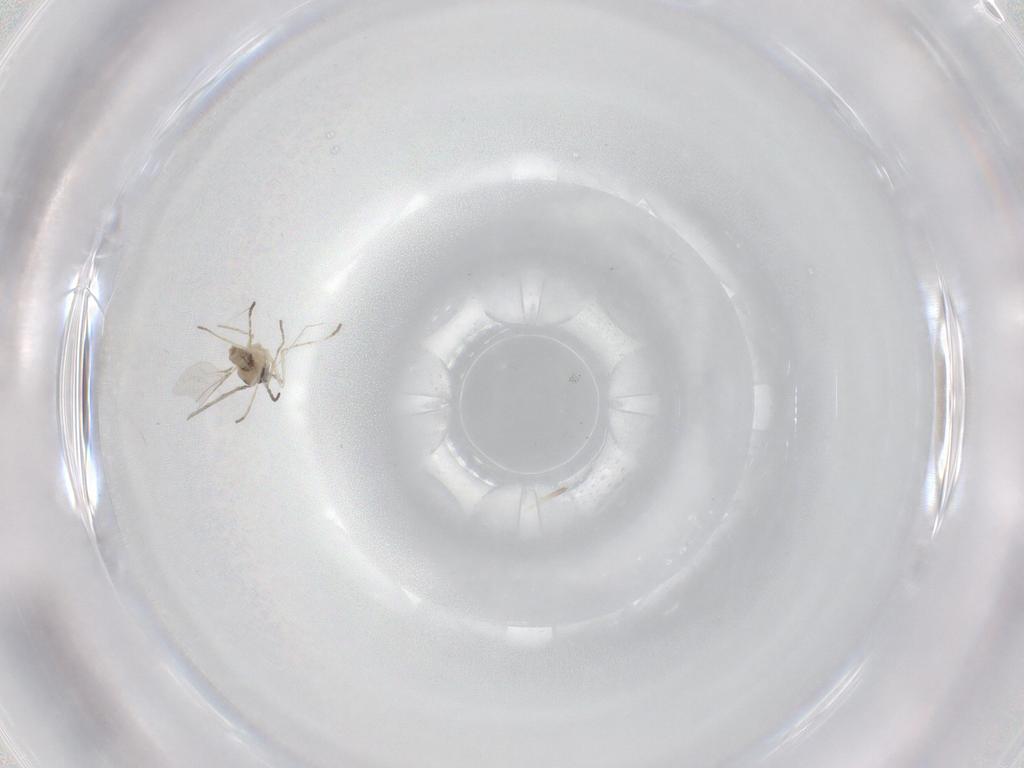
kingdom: Animalia
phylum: Arthropoda
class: Insecta
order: Diptera
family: Cecidomyiidae
